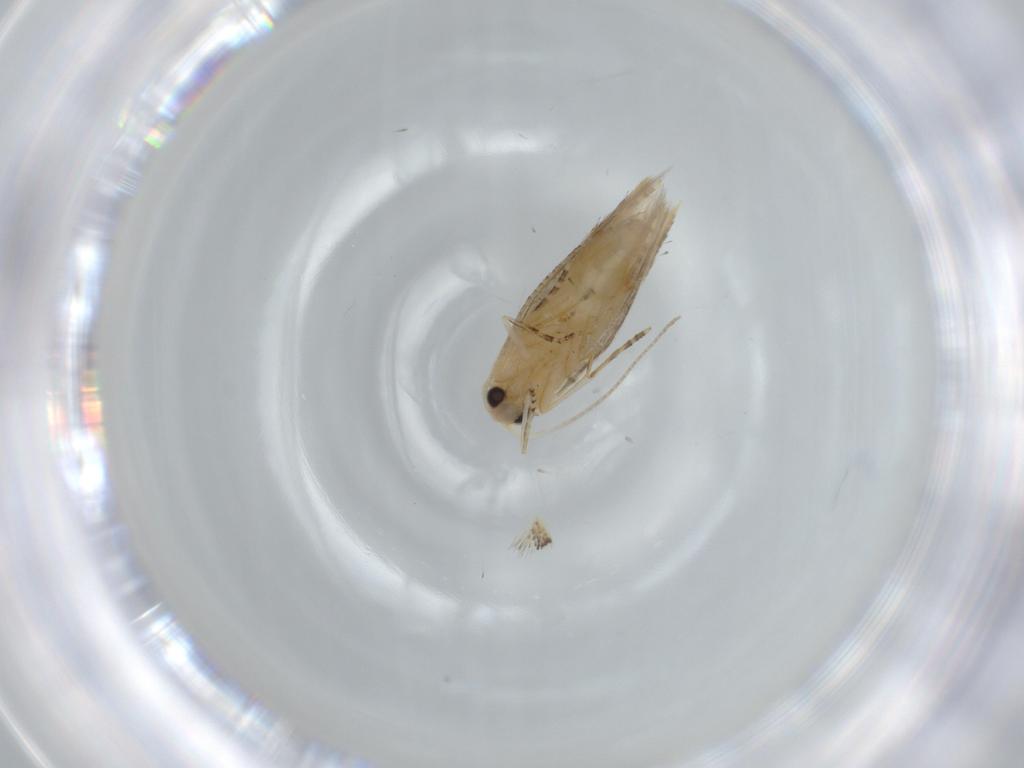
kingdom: Animalia
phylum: Arthropoda
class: Insecta
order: Lepidoptera
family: Bucculatricidae
